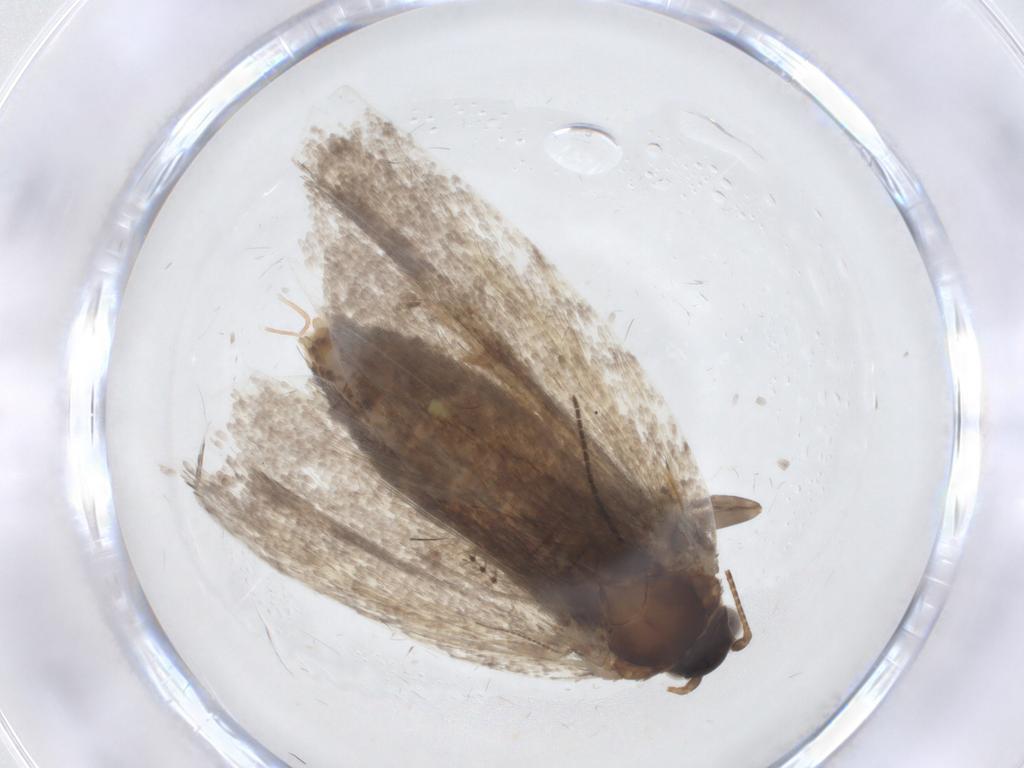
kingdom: Animalia
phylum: Arthropoda
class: Insecta
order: Lepidoptera
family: Tortricidae
